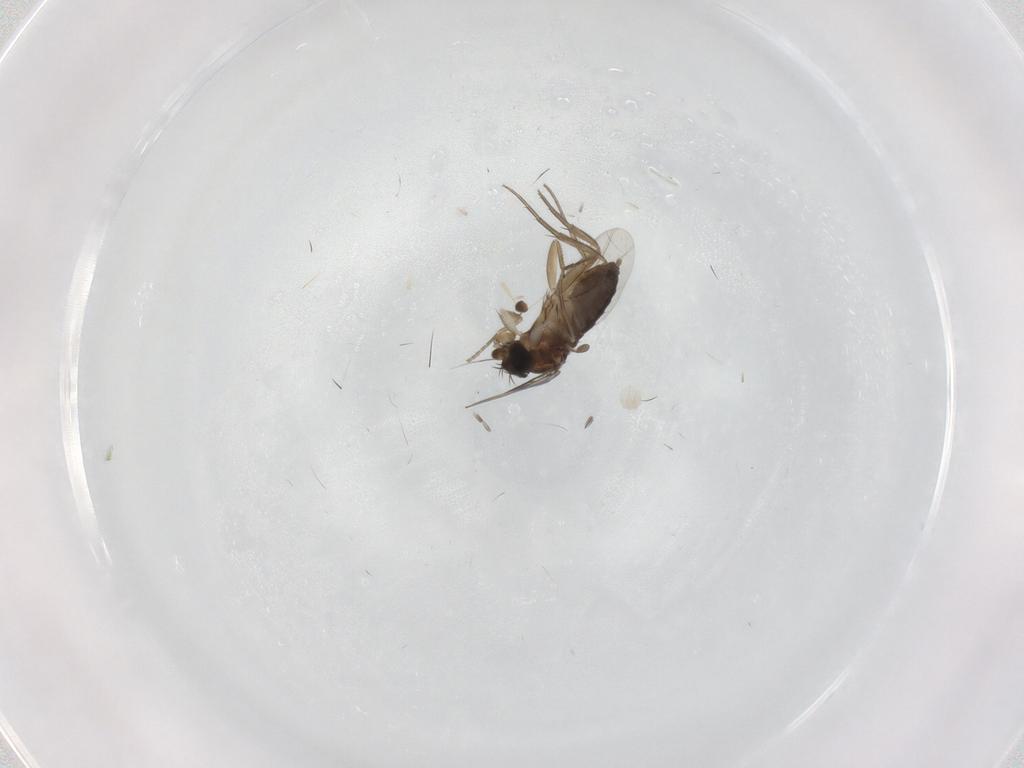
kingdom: Animalia
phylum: Arthropoda
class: Insecta
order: Diptera
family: Phoridae
